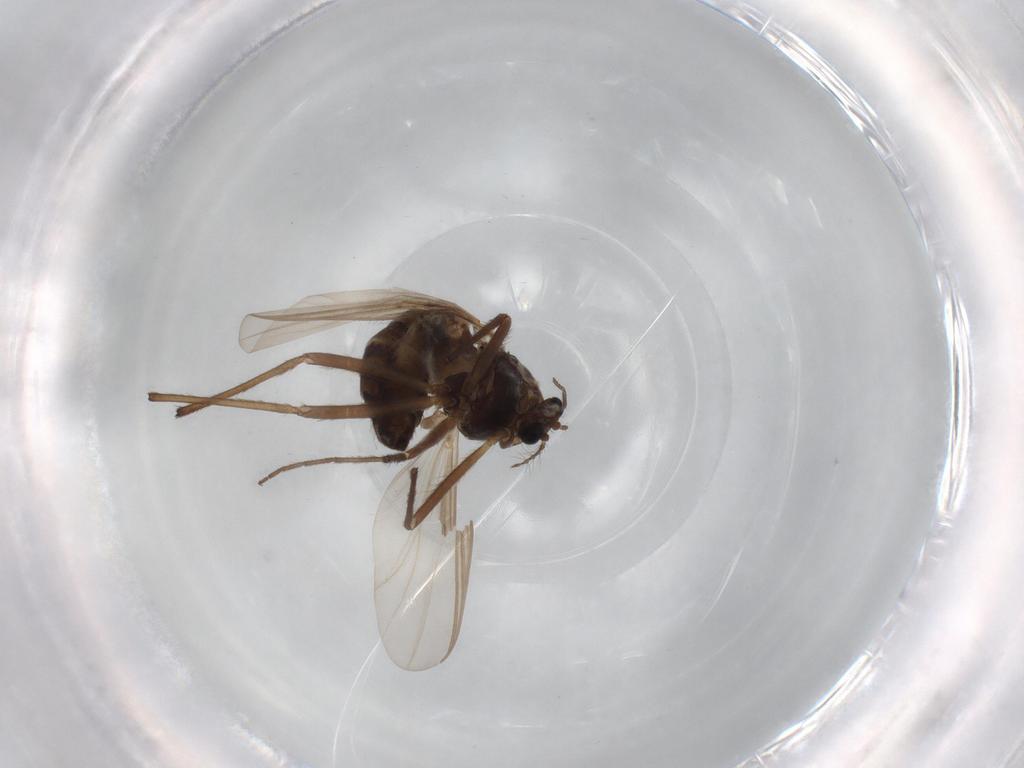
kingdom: Animalia
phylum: Arthropoda
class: Insecta
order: Diptera
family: Chironomidae
